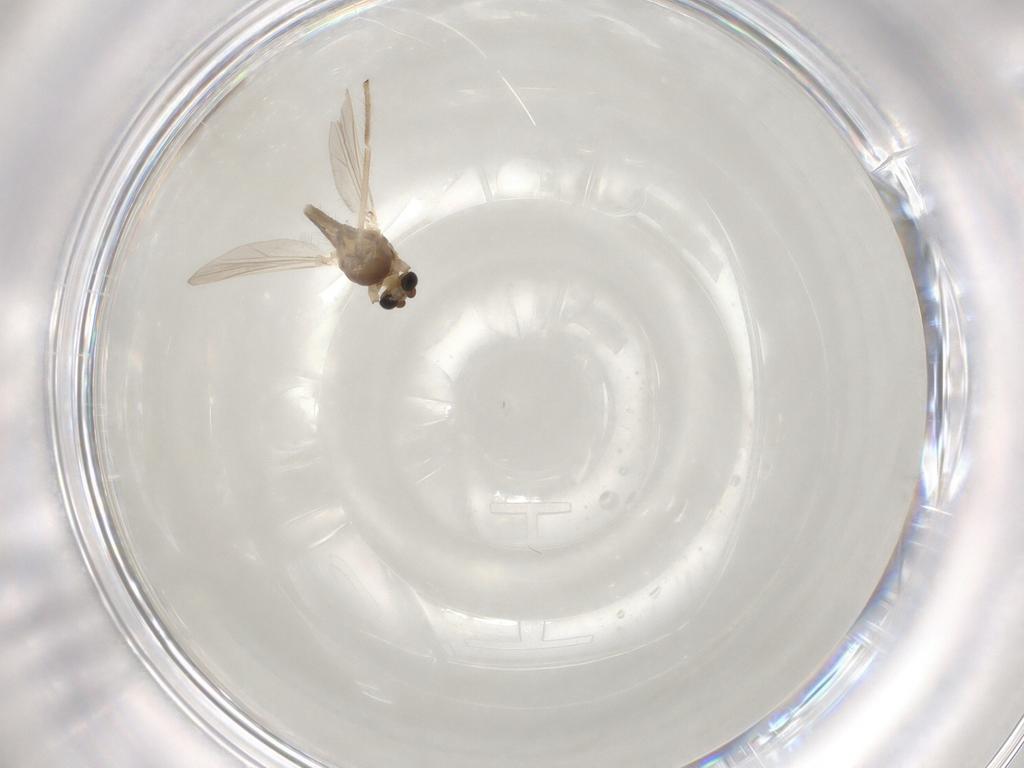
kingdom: Animalia
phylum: Arthropoda
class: Insecta
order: Diptera
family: Chironomidae
